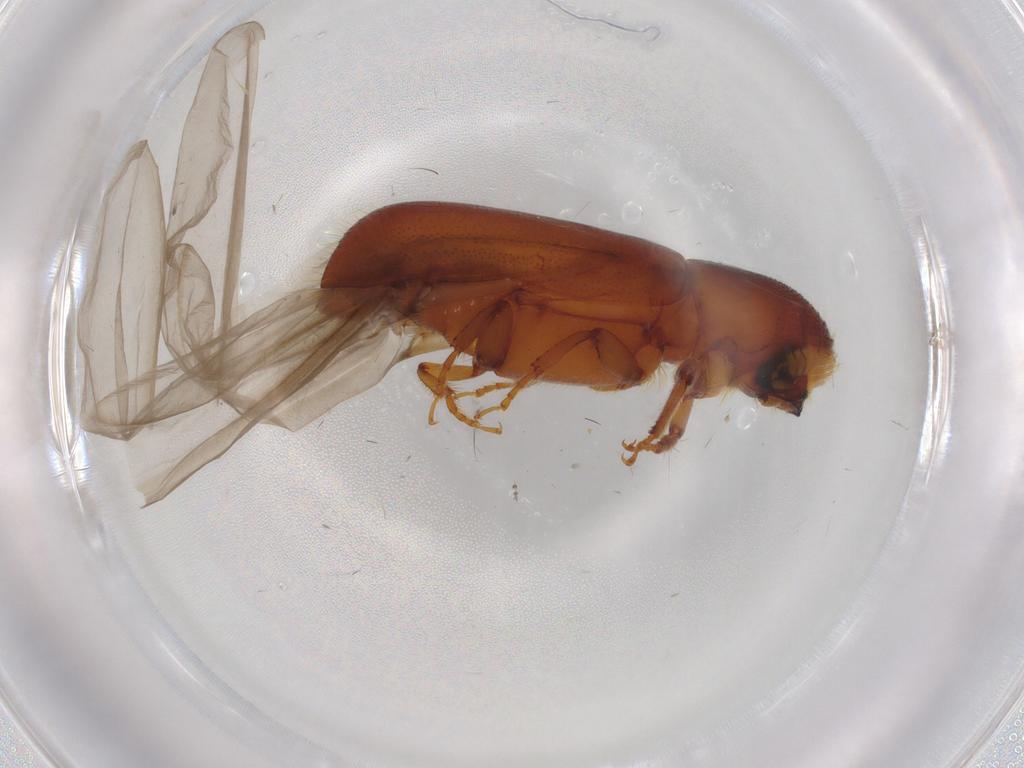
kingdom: Animalia
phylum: Arthropoda
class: Insecta
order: Coleoptera
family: Curculionidae
